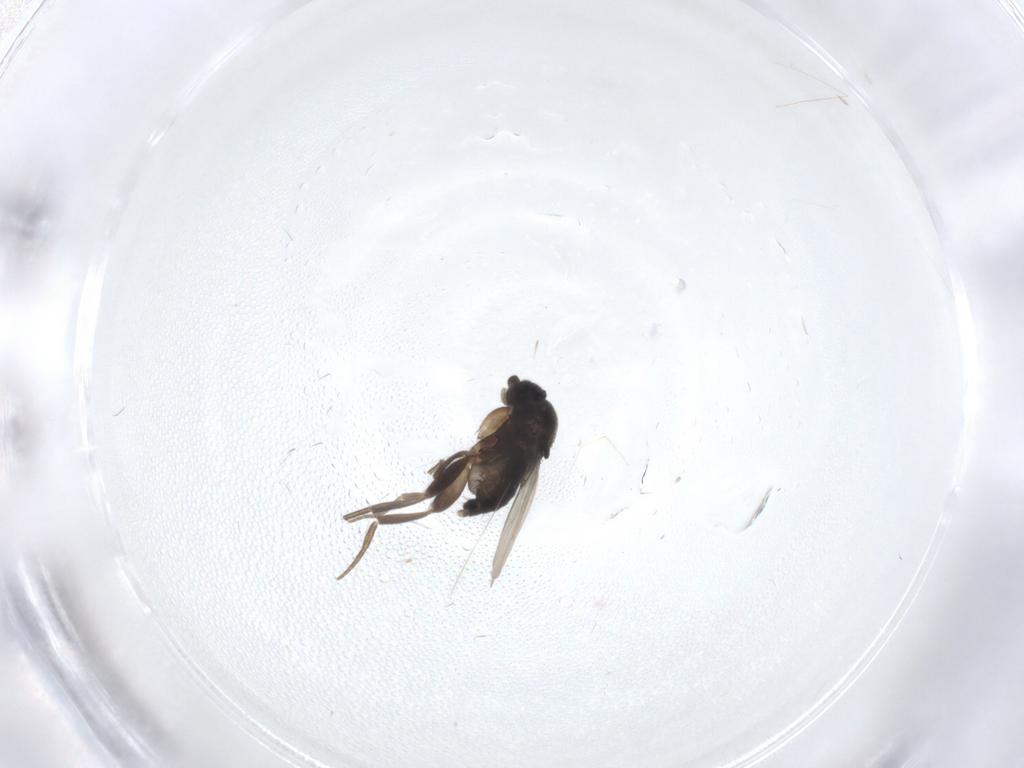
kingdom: Animalia
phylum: Arthropoda
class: Insecta
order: Diptera
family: Phoridae
